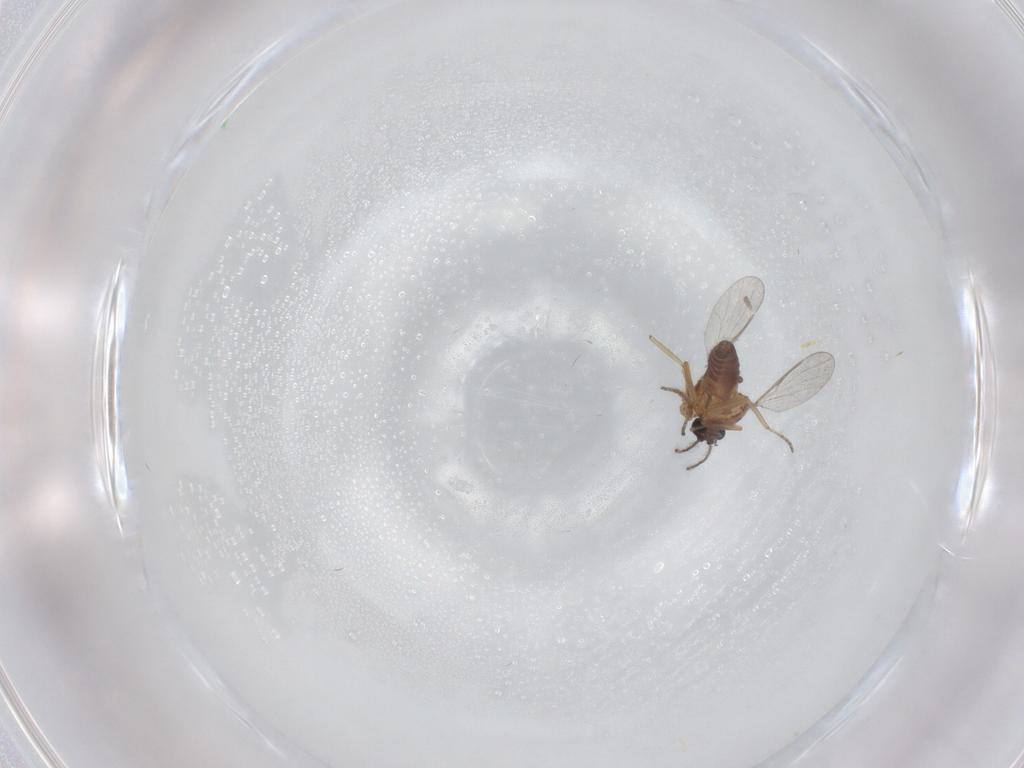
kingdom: Animalia
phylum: Arthropoda
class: Insecta
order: Diptera
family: Ceratopogonidae
